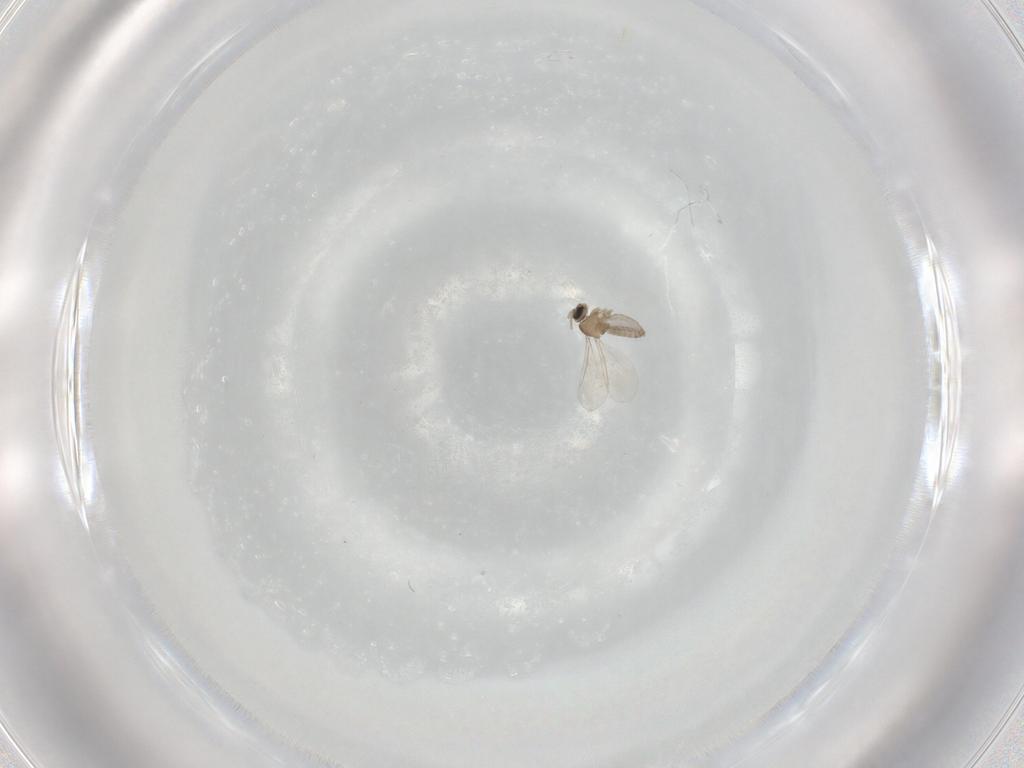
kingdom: Animalia
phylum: Arthropoda
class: Insecta
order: Diptera
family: Cecidomyiidae
